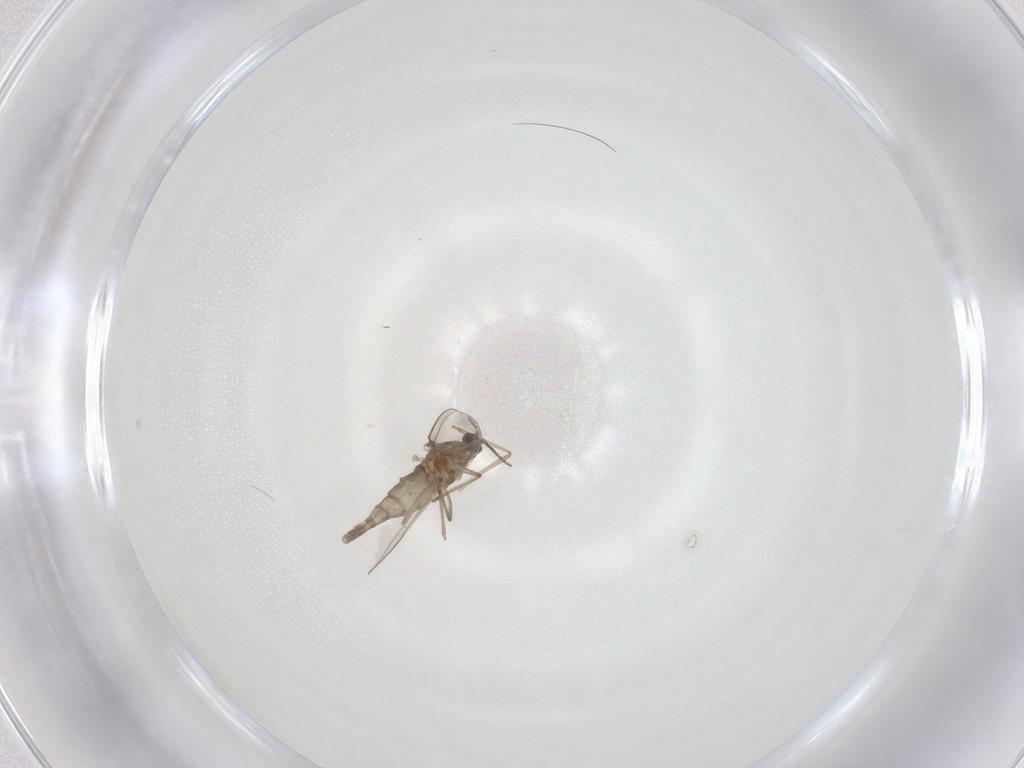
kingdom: Animalia
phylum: Arthropoda
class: Insecta
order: Diptera
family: Cecidomyiidae
